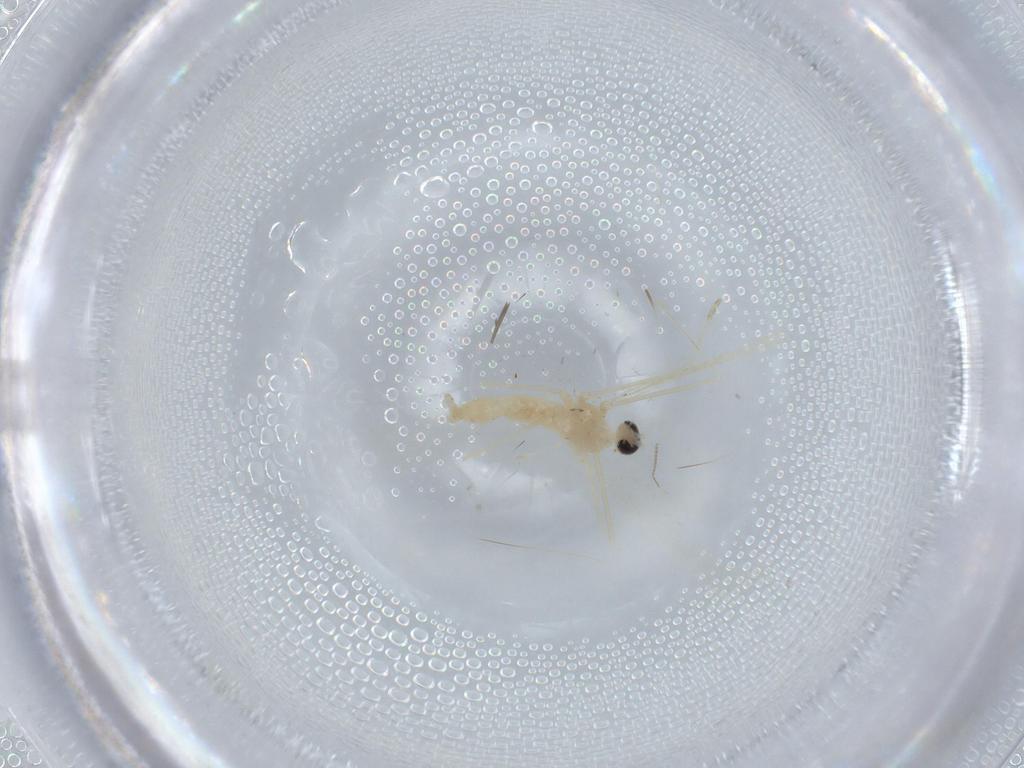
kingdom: Animalia
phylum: Arthropoda
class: Insecta
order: Diptera
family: Cecidomyiidae
